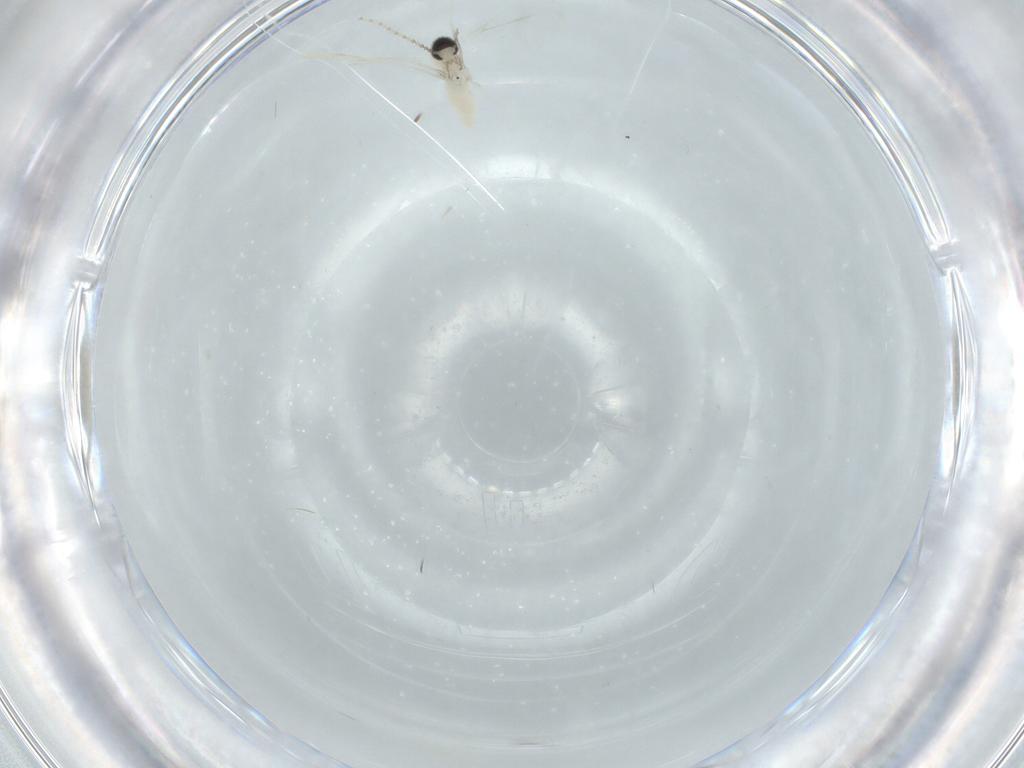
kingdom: Animalia
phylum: Arthropoda
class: Insecta
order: Diptera
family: Cecidomyiidae
